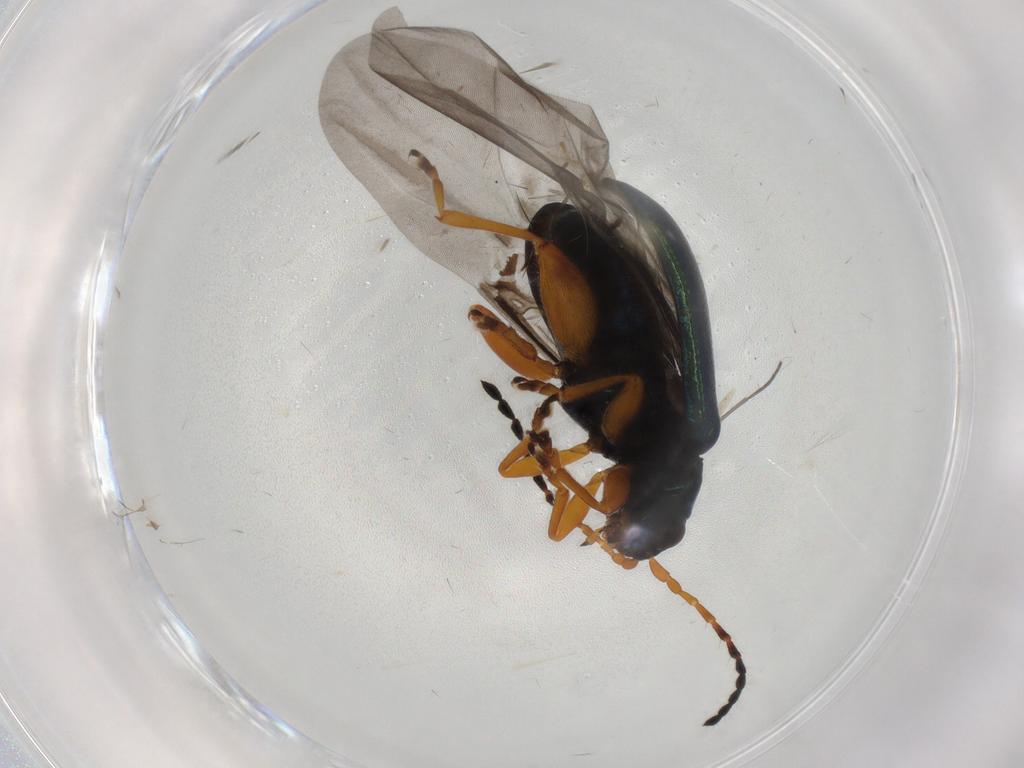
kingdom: Animalia
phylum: Arthropoda
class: Insecta
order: Coleoptera
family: Chrysomelidae
